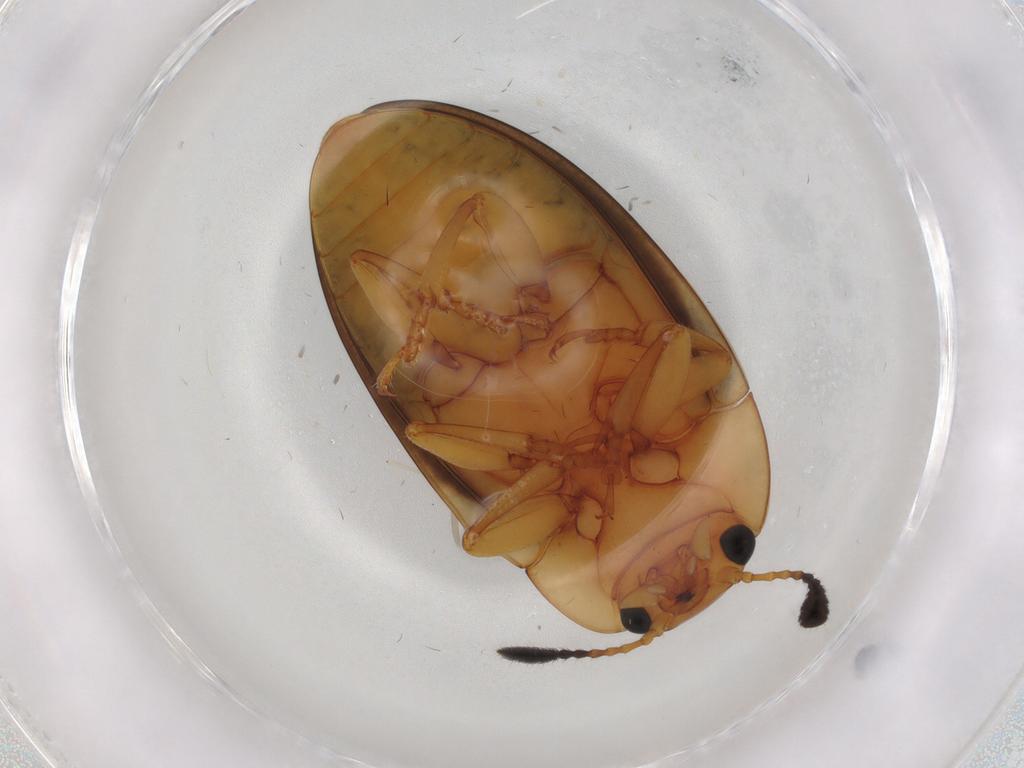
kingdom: Animalia
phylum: Arthropoda
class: Insecta
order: Coleoptera
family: Erotylidae
